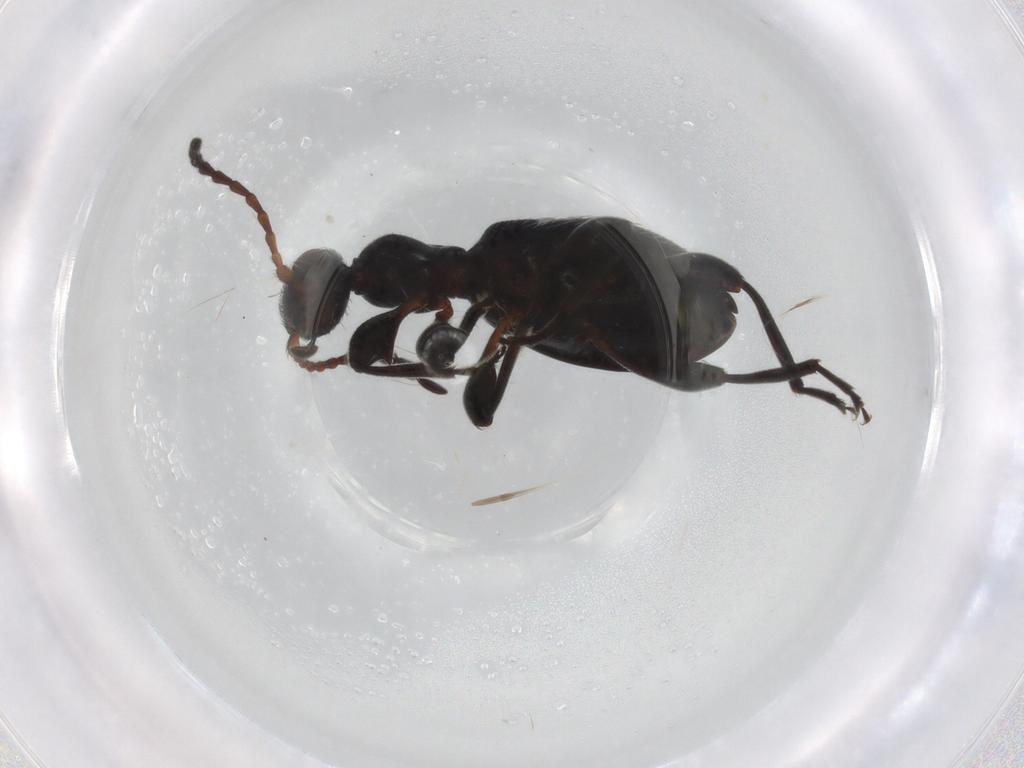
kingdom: Animalia
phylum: Arthropoda
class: Insecta
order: Coleoptera
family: Anthicidae
